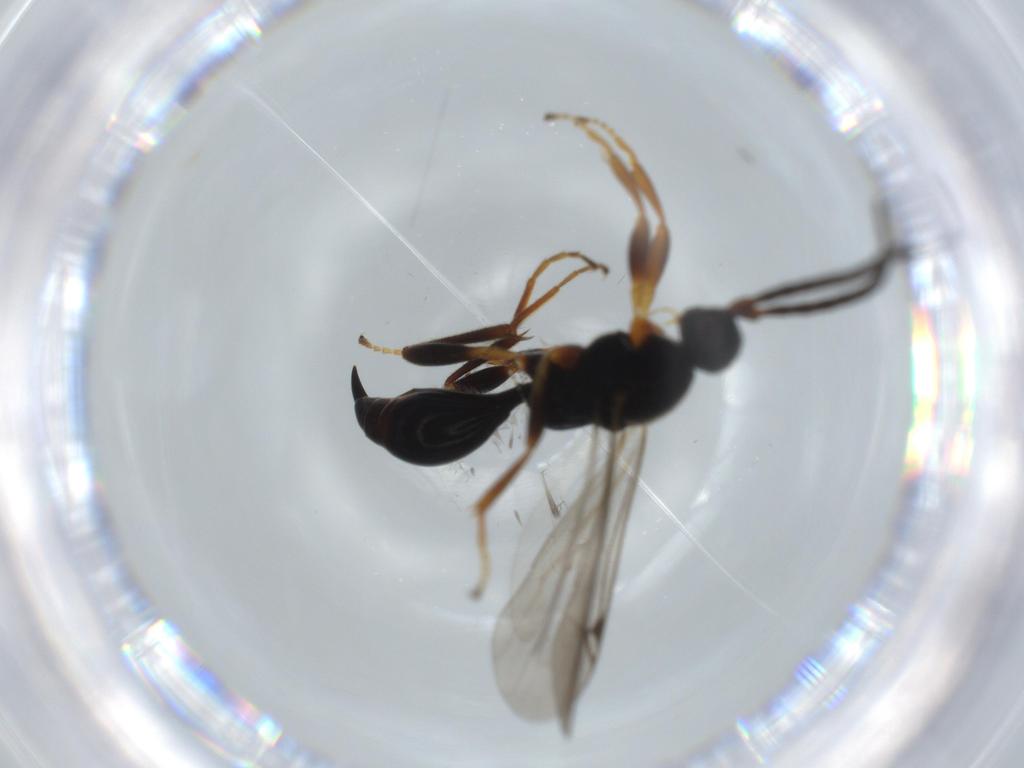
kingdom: Animalia
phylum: Arthropoda
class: Insecta
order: Hymenoptera
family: Proctotrupidae
